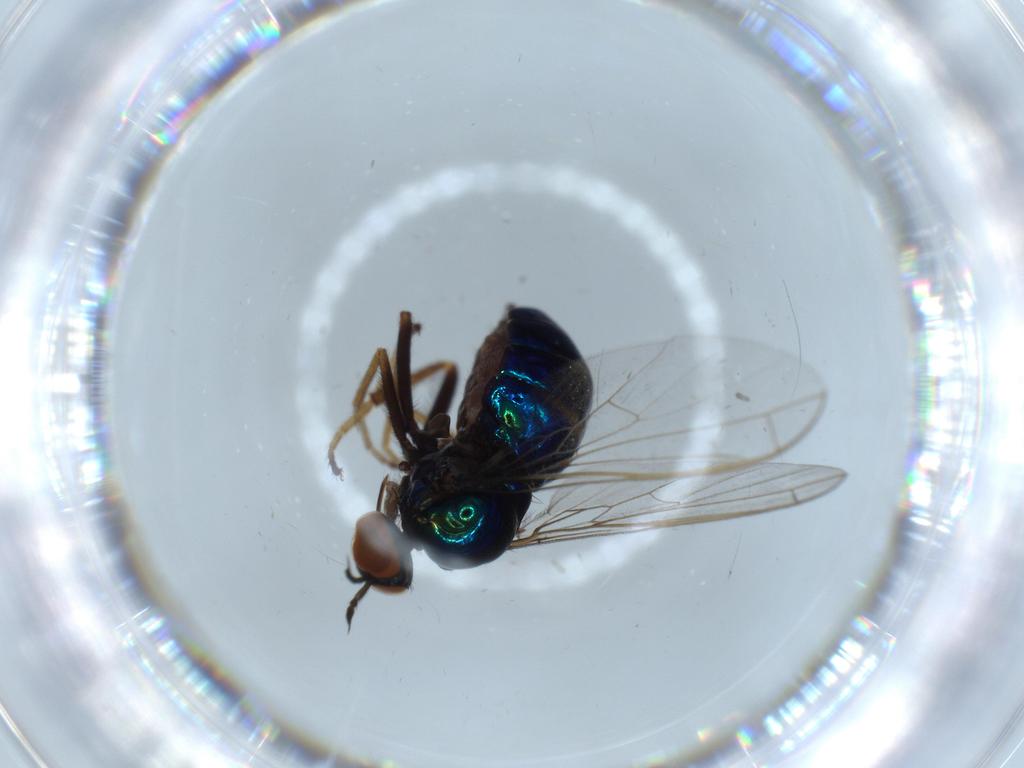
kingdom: Animalia
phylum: Arthropoda
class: Insecta
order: Diptera
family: Empididae
